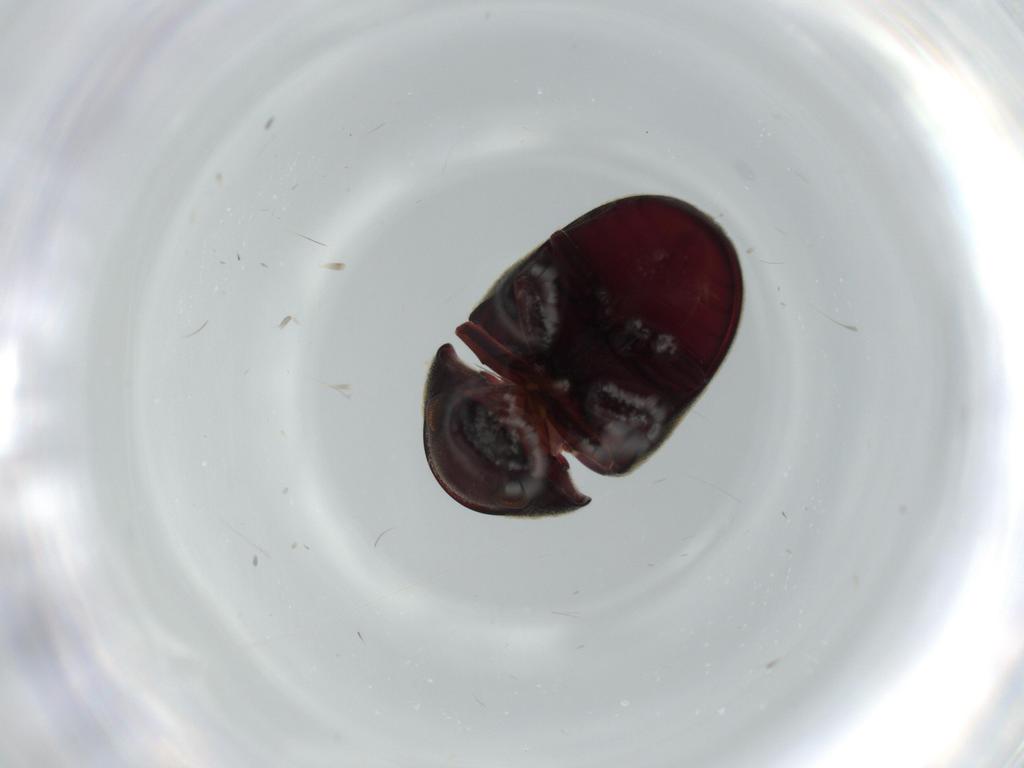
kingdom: Animalia
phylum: Arthropoda
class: Insecta
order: Coleoptera
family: Ptinidae
